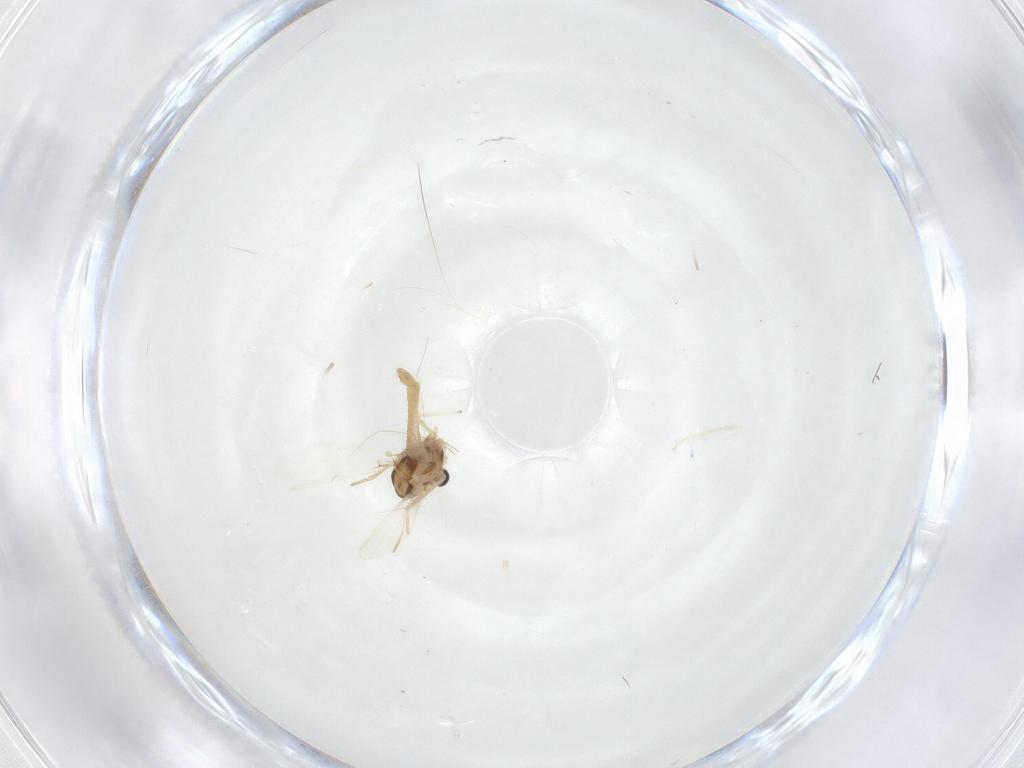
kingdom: Animalia
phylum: Arthropoda
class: Insecta
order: Diptera
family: Chironomidae
